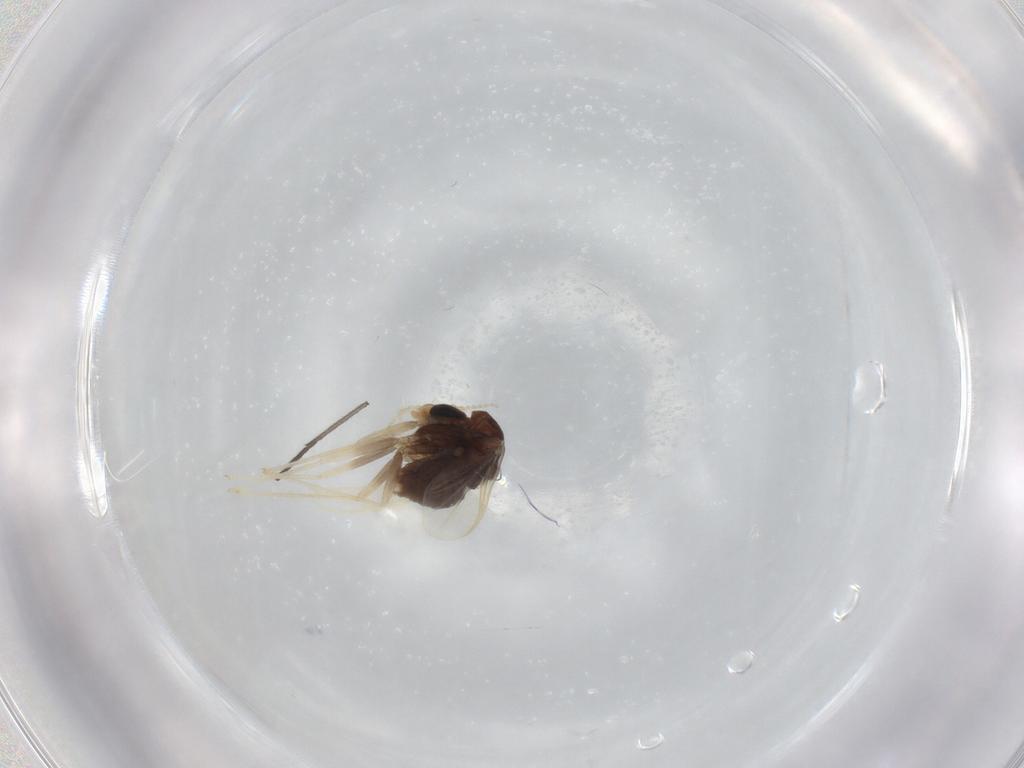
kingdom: Animalia
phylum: Arthropoda
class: Insecta
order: Diptera
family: Chironomidae
